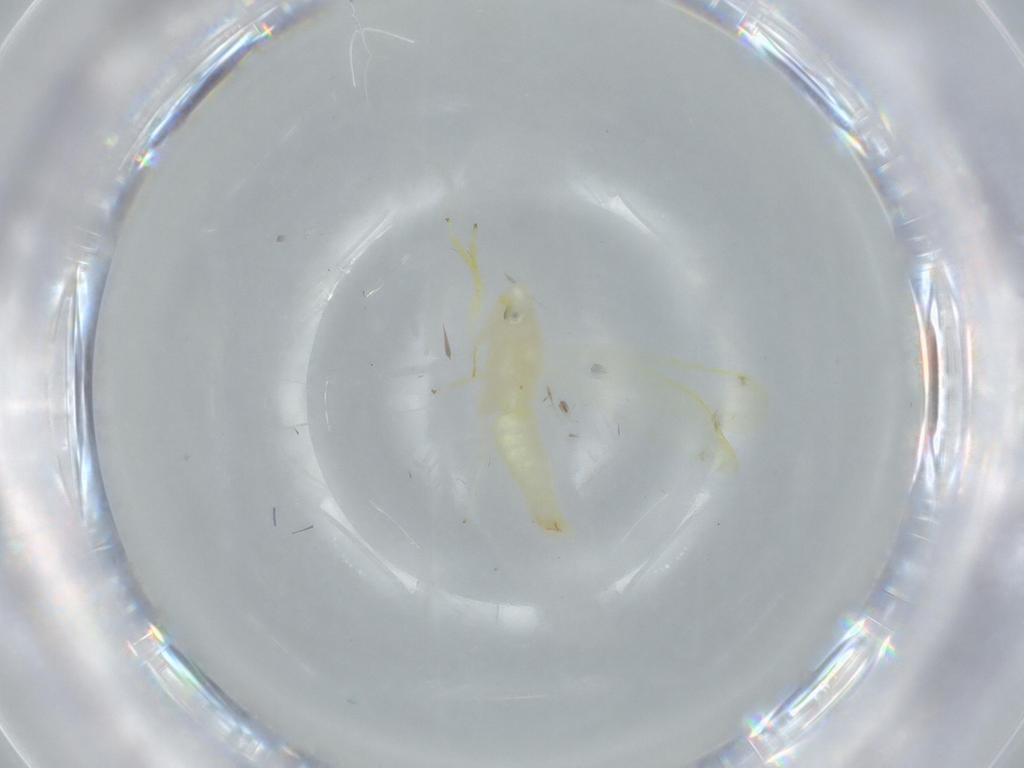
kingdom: Animalia
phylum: Arthropoda
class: Insecta
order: Hemiptera
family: Cicadellidae
